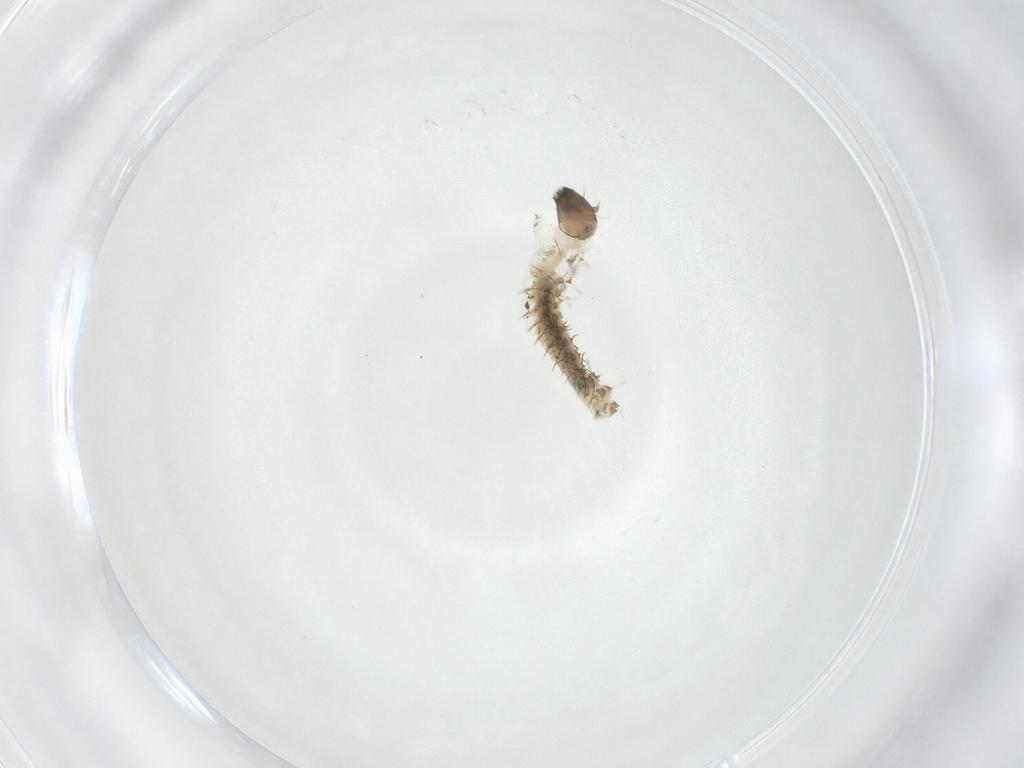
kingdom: Animalia
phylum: Arthropoda
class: Insecta
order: Diptera
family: Ceratopogonidae
